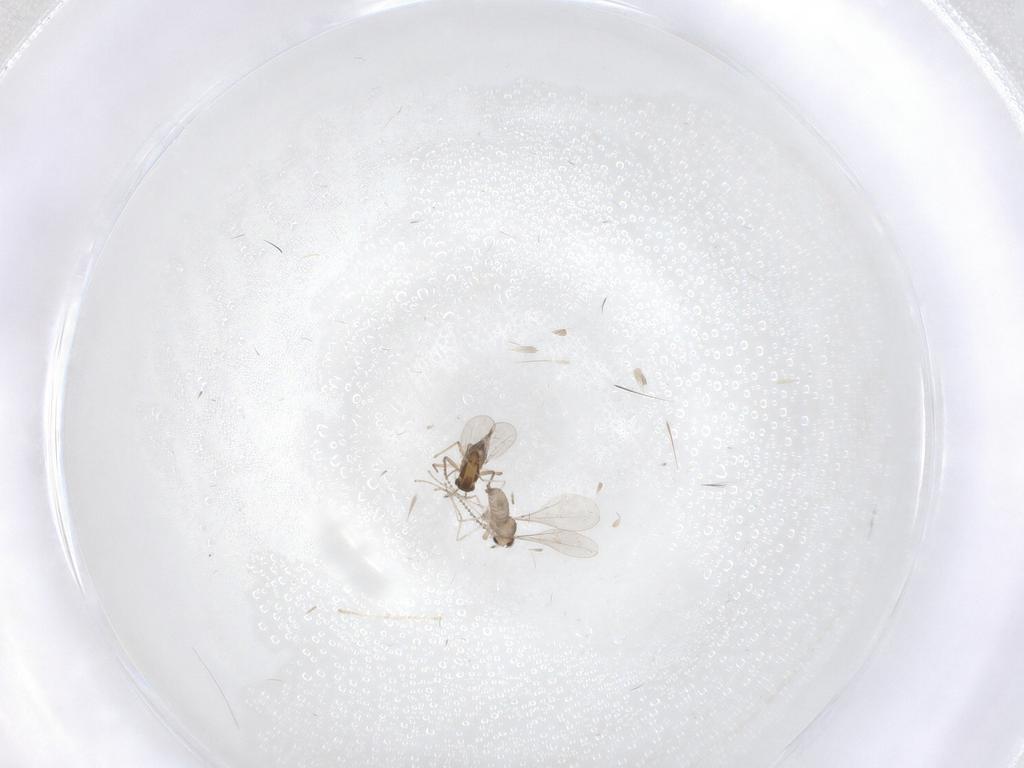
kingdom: Animalia
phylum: Arthropoda
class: Insecta
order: Diptera
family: Cecidomyiidae
